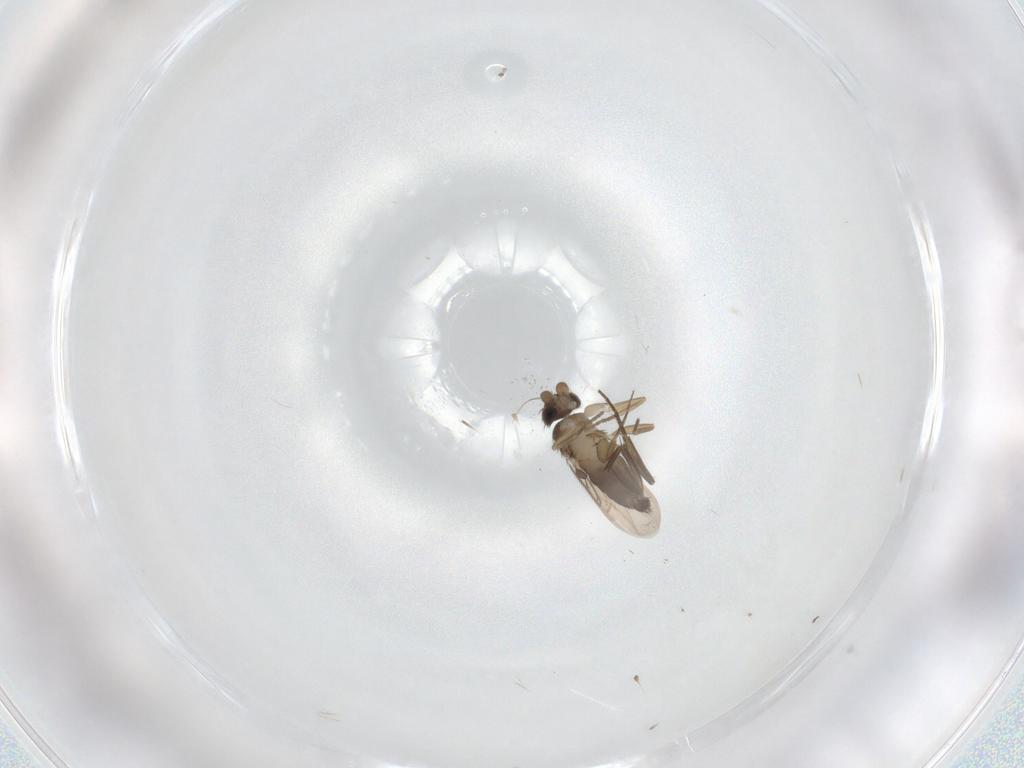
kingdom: Animalia
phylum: Arthropoda
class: Insecta
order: Diptera
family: Phoridae
